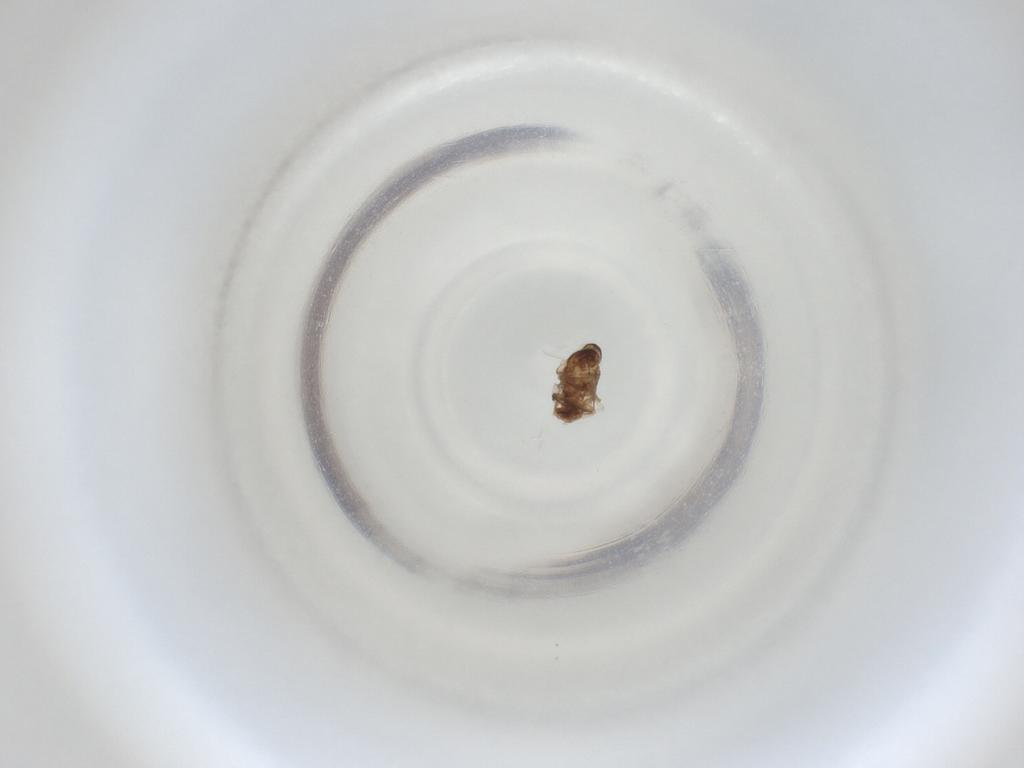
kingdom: Animalia
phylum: Arthropoda
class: Insecta
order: Diptera
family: Cecidomyiidae
